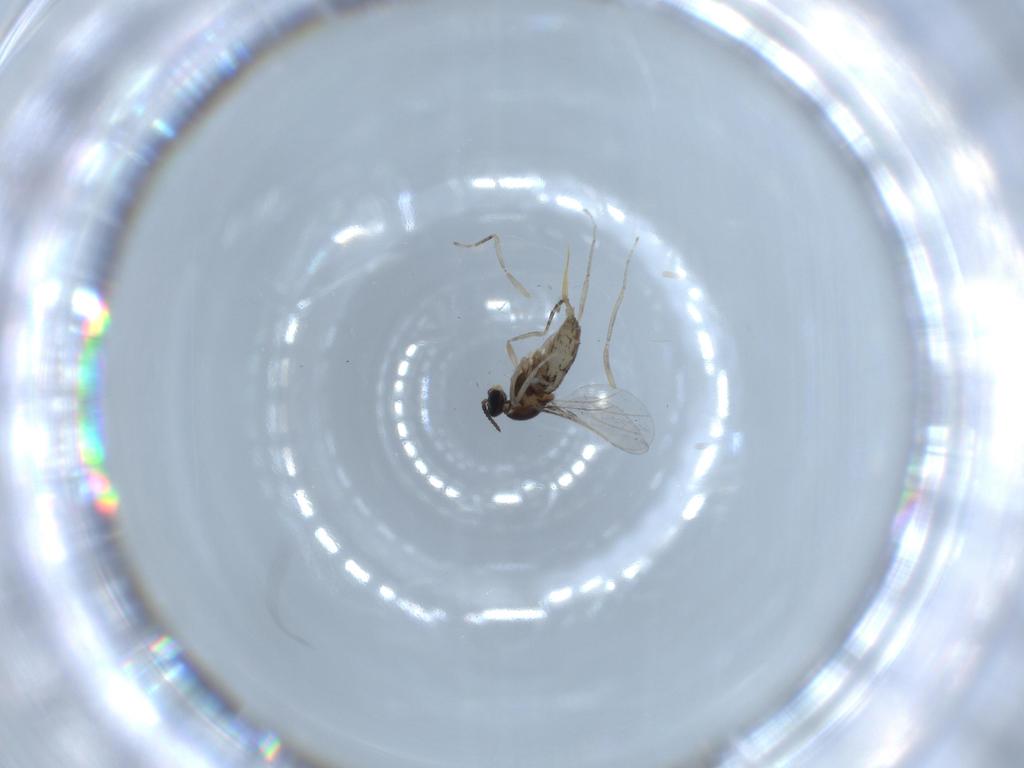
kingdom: Animalia
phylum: Arthropoda
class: Insecta
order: Diptera
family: Cecidomyiidae
